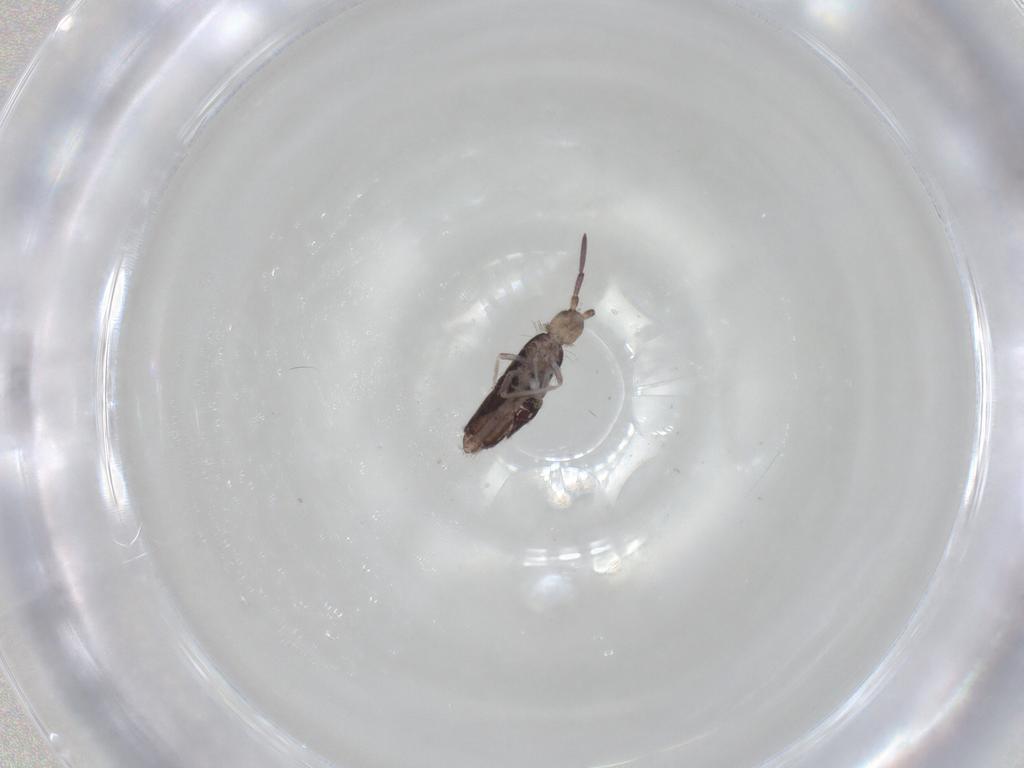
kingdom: Animalia
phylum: Arthropoda
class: Collembola
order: Entomobryomorpha
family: Entomobryidae
